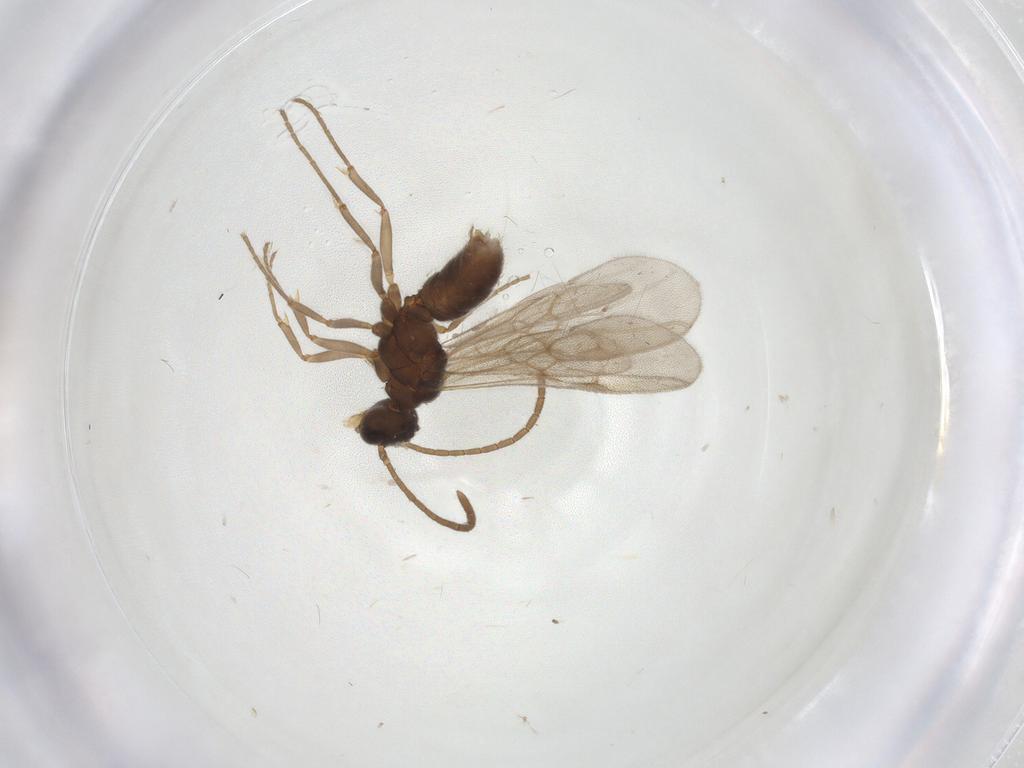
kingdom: Animalia
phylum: Arthropoda
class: Insecta
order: Hymenoptera
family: Formicidae
